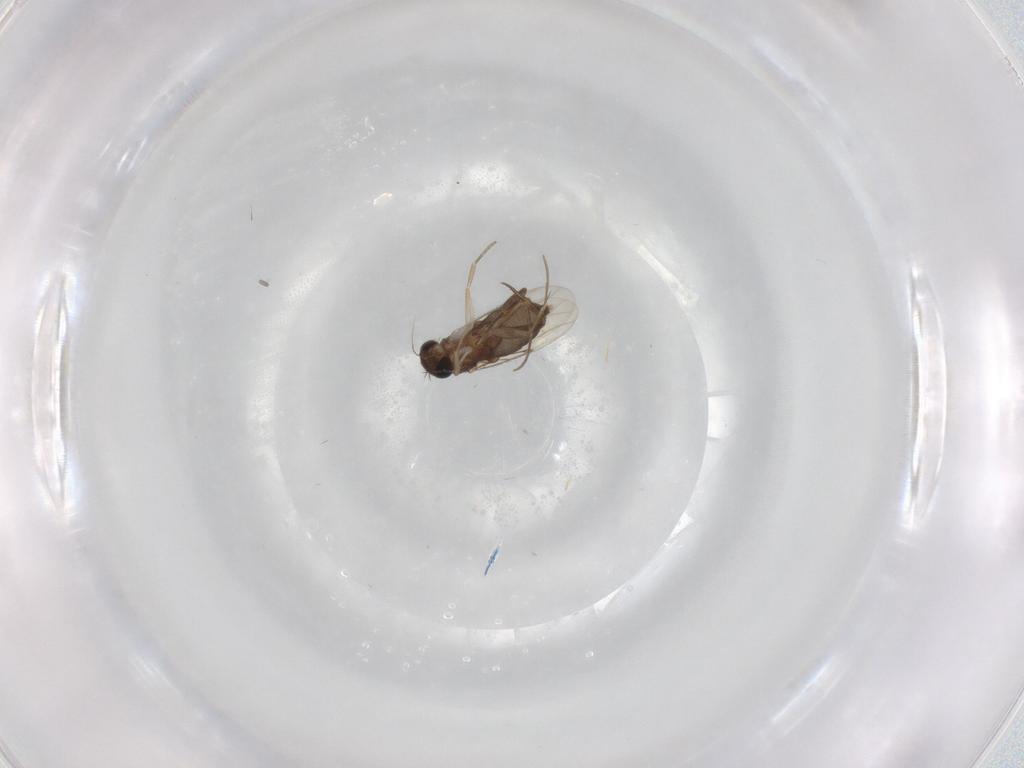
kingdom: Animalia
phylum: Arthropoda
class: Insecta
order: Diptera
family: Phoridae
